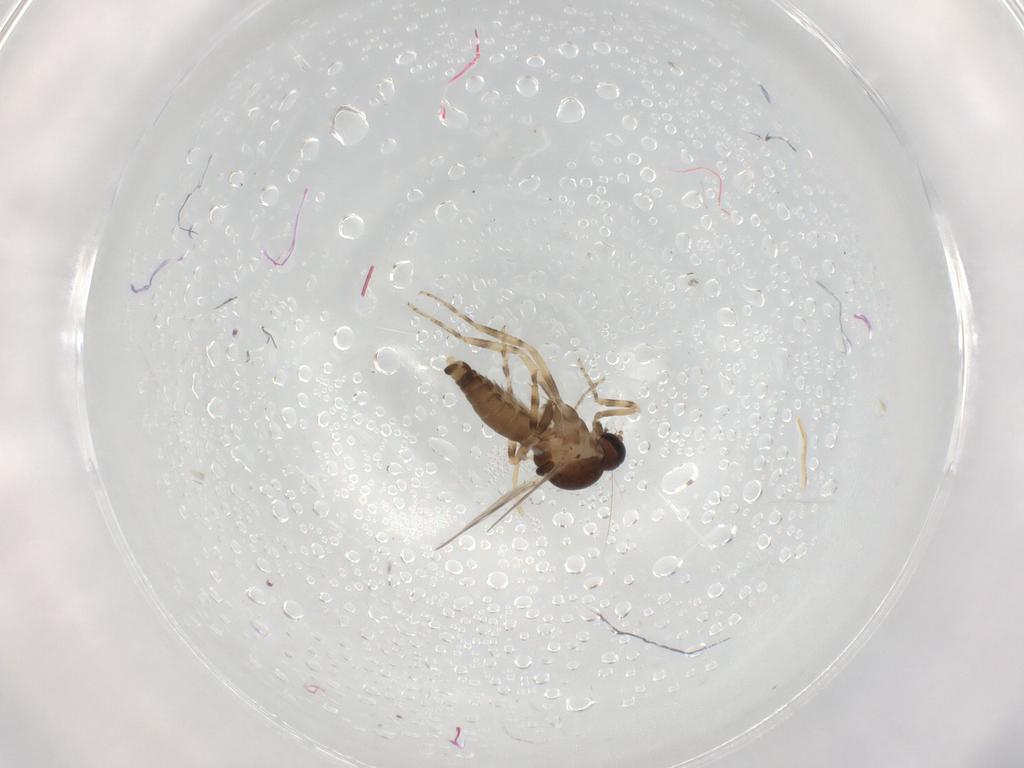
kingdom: Animalia
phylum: Arthropoda
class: Insecta
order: Diptera
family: Ceratopogonidae
